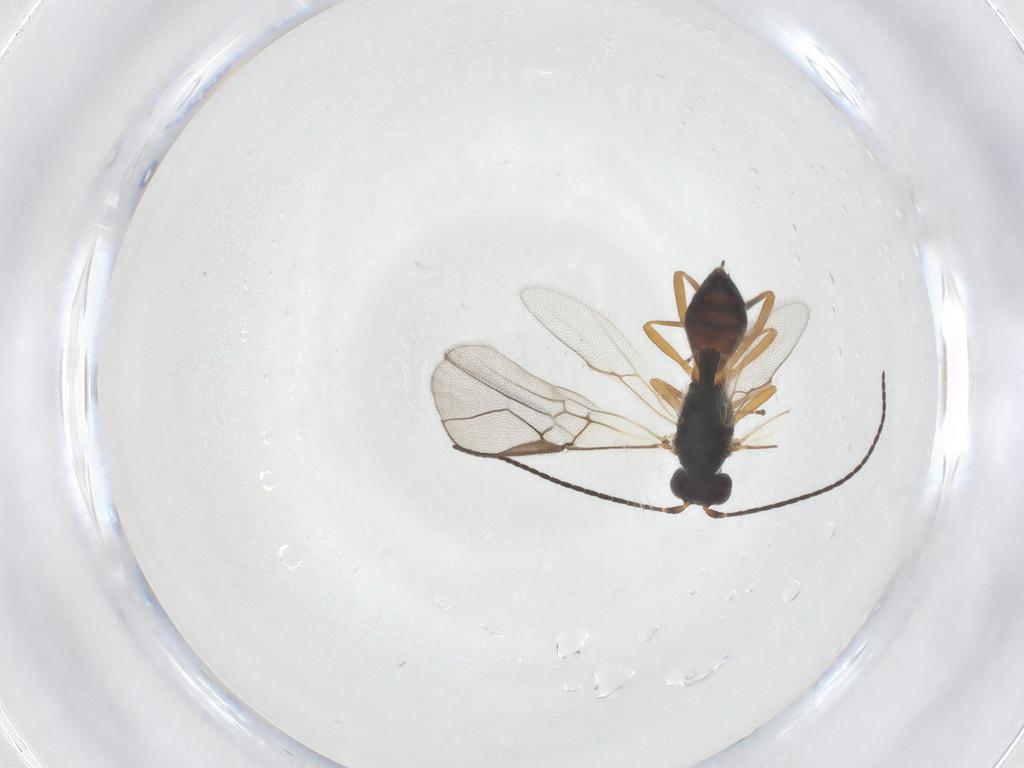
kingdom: Animalia
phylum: Arthropoda
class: Insecta
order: Hymenoptera
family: Braconidae
